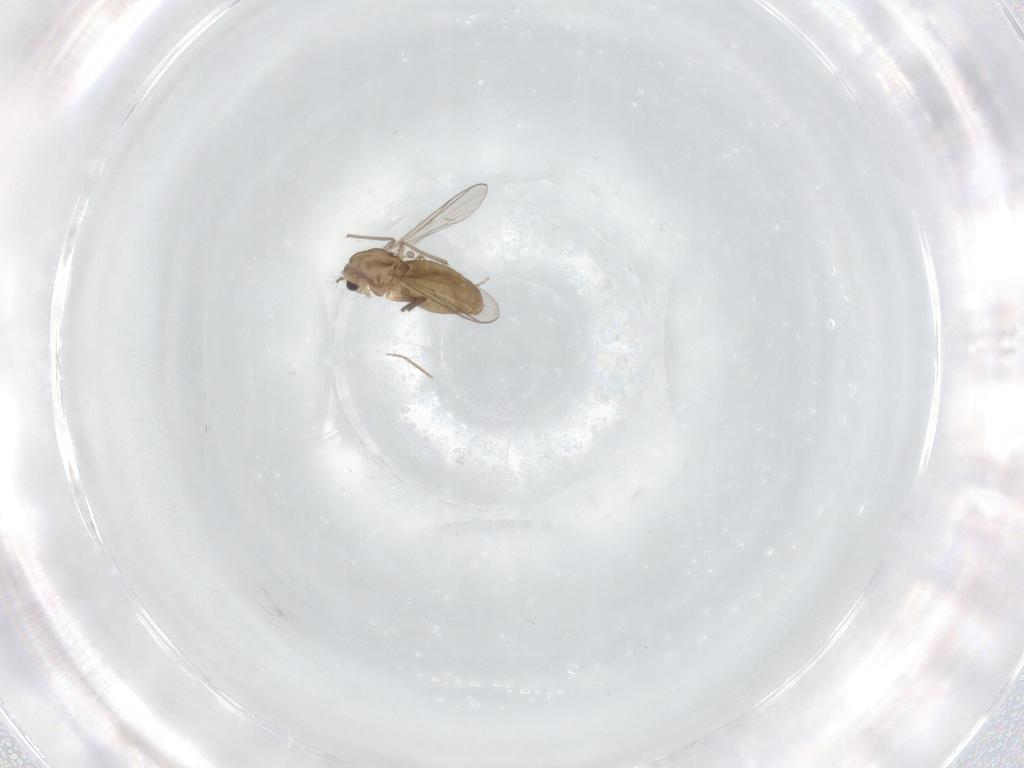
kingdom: Animalia
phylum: Arthropoda
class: Insecta
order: Diptera
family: Chironomidae
